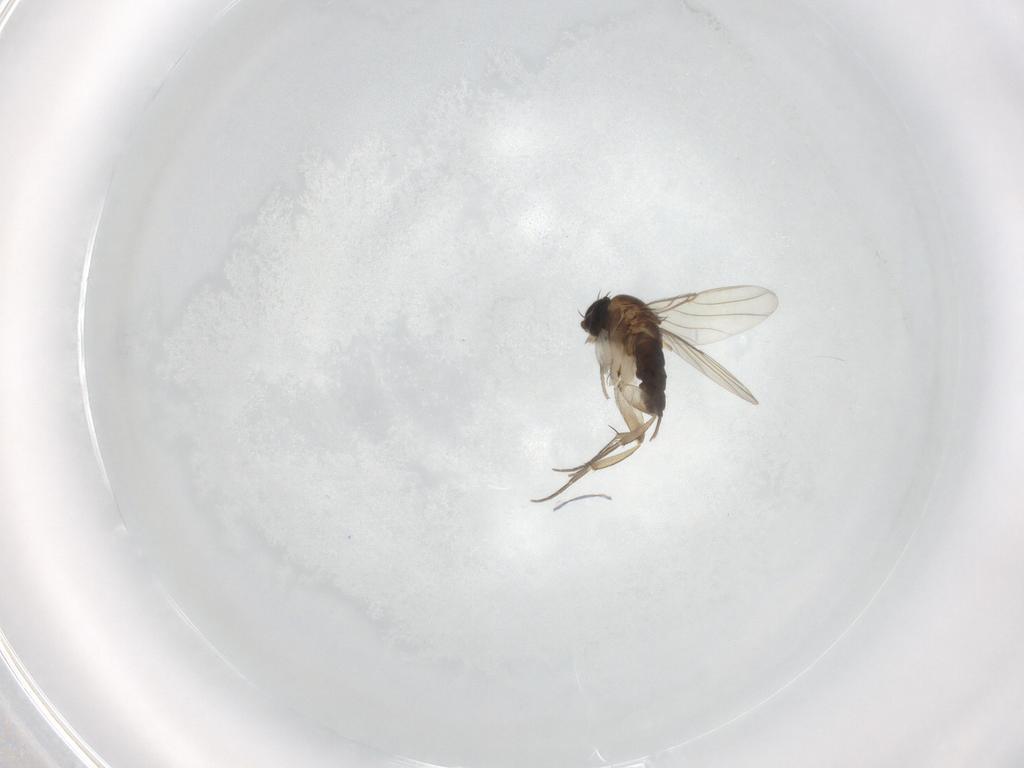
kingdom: Animalia
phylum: Arthropoda
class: Insecta
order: Diptera
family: Phoridae
